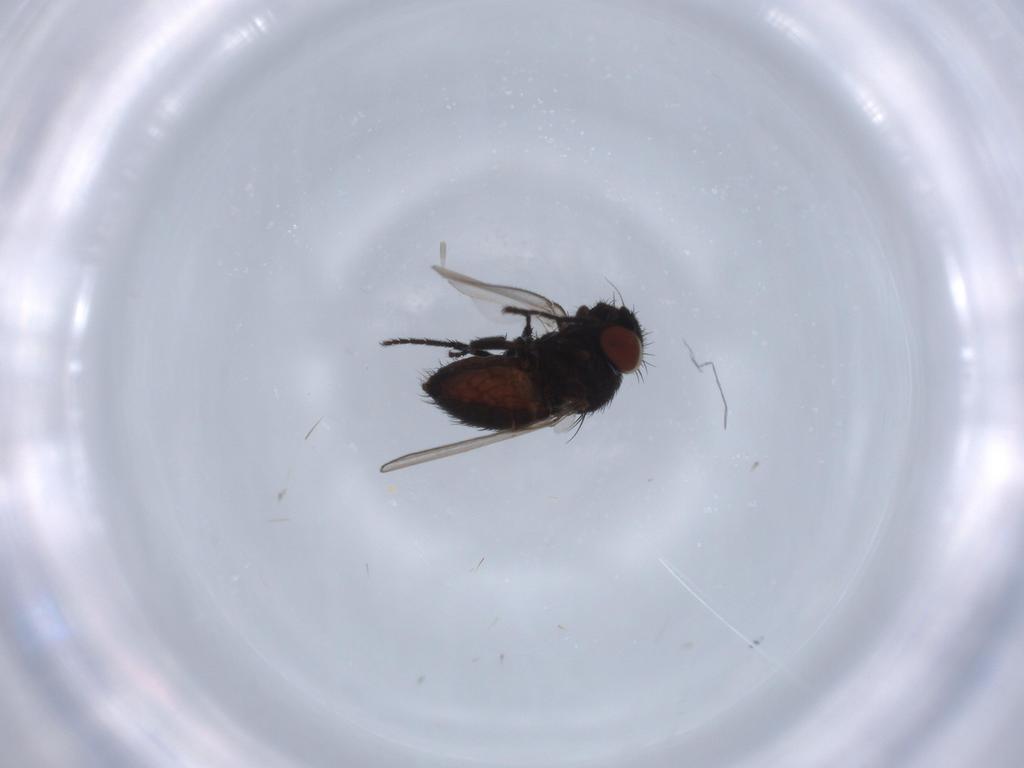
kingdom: Animalia
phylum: Arthropoda
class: Insecta
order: Diptera
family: Milichiidae
